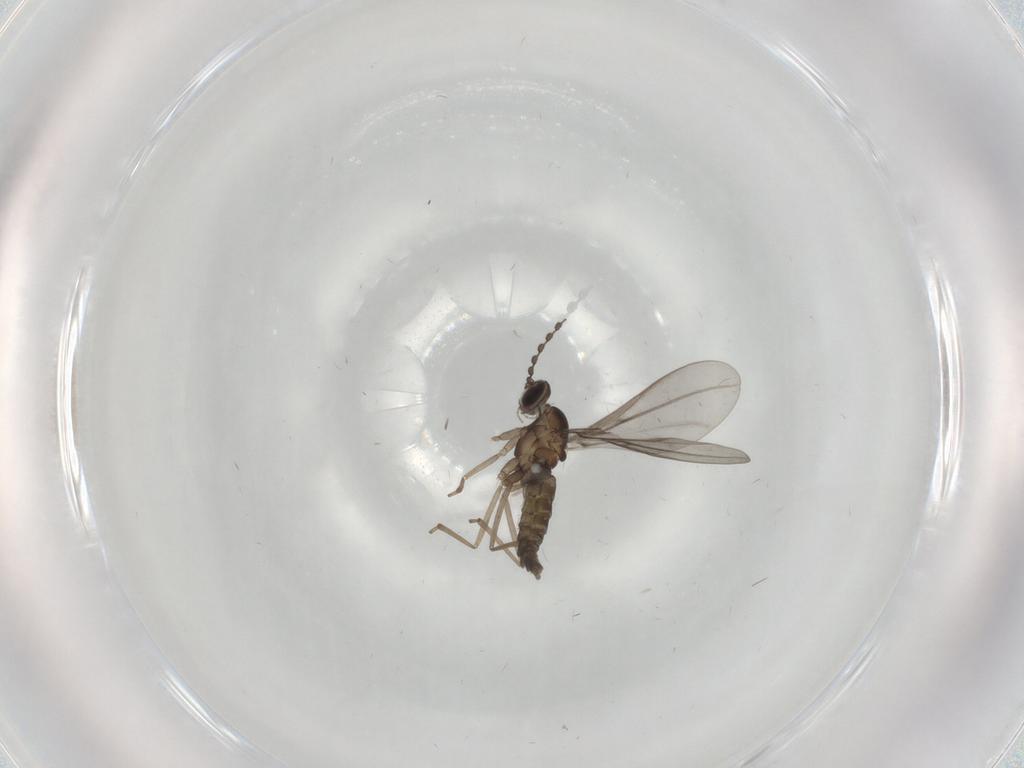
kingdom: Animalia
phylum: Arthropoda
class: Insecta
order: Diptera
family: Cecidomyiidae
